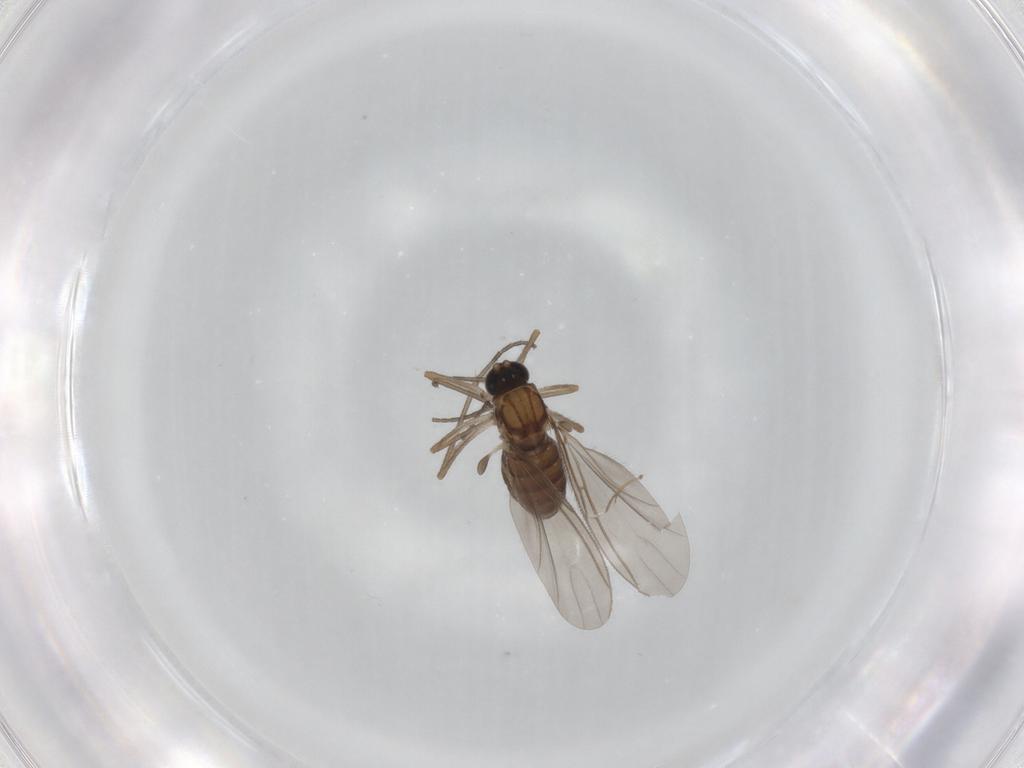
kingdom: Animalia
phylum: Arthropoda
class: Insecta
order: Diptera
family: Sciaridae
